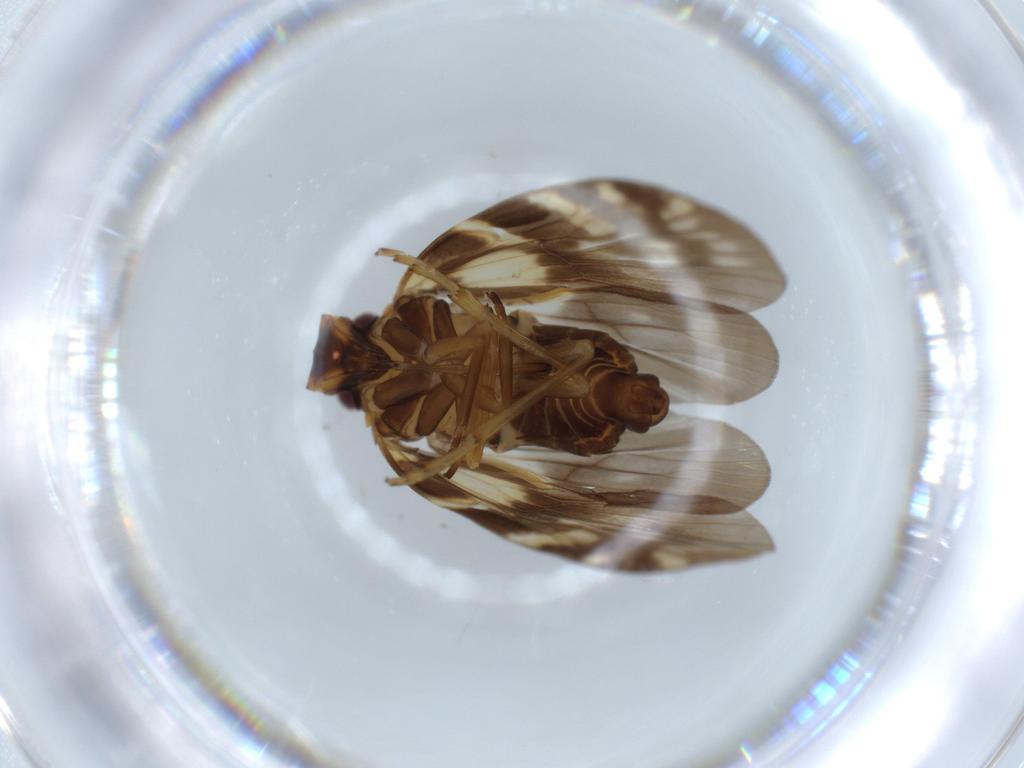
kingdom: Animalia
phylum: Arthropoda
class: Insecta
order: Hemiptera
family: Cixiidae
